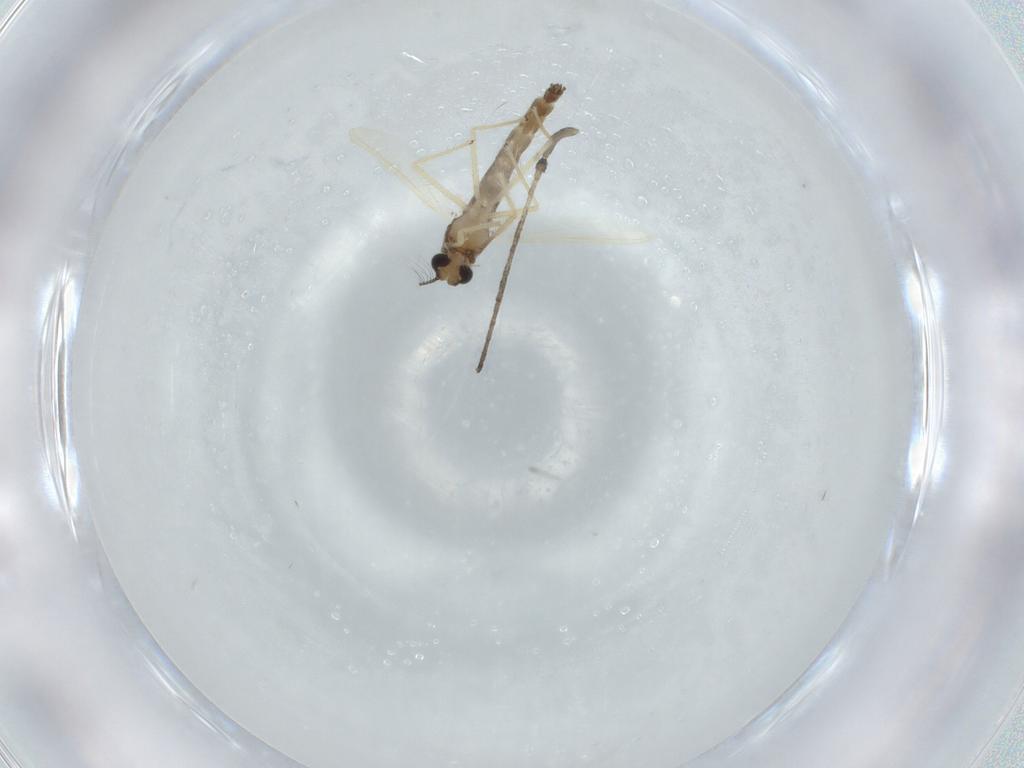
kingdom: Animalia
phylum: Arthropoda
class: Insecta
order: Diptera
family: Chironomidae
